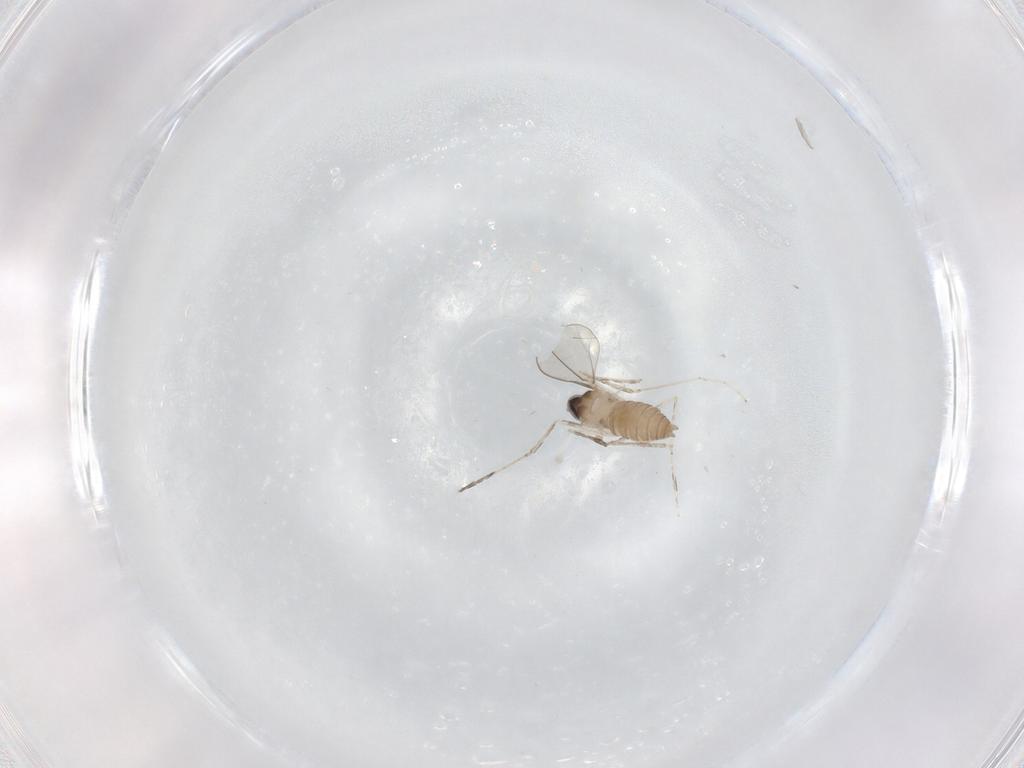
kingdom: Animalia
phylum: Arthropoda
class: Insecta
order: Diptera
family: Cecidomyiidae
